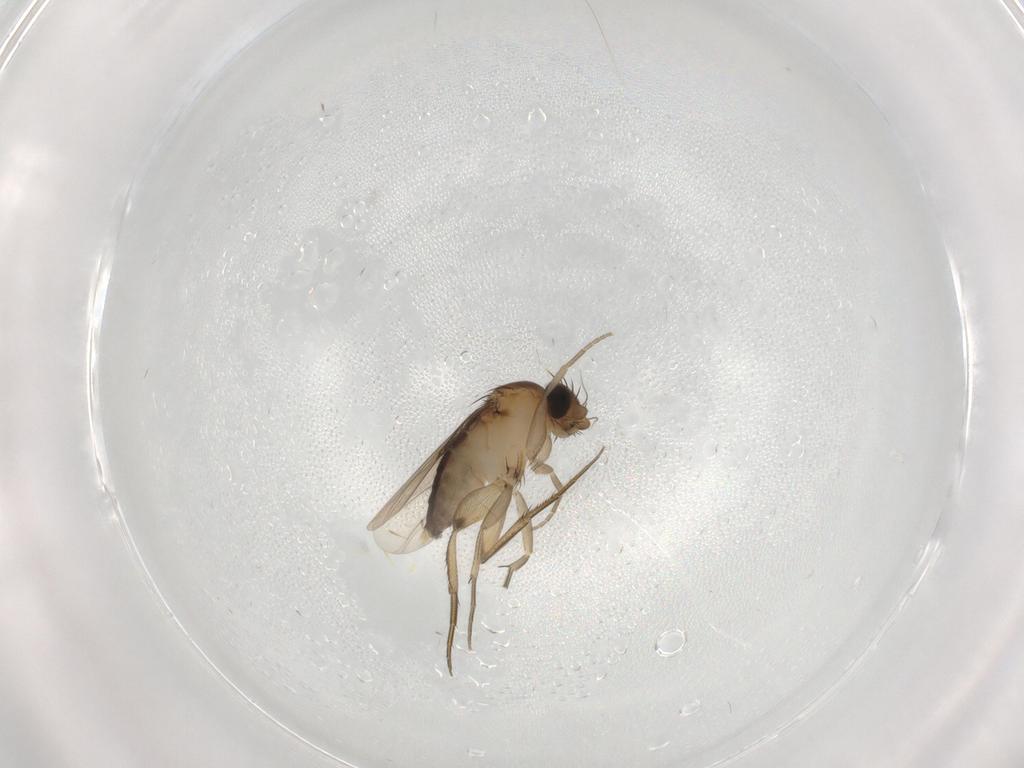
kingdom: Animalia
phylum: Arthropoda
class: Insecta
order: Diptera
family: Phoridae
